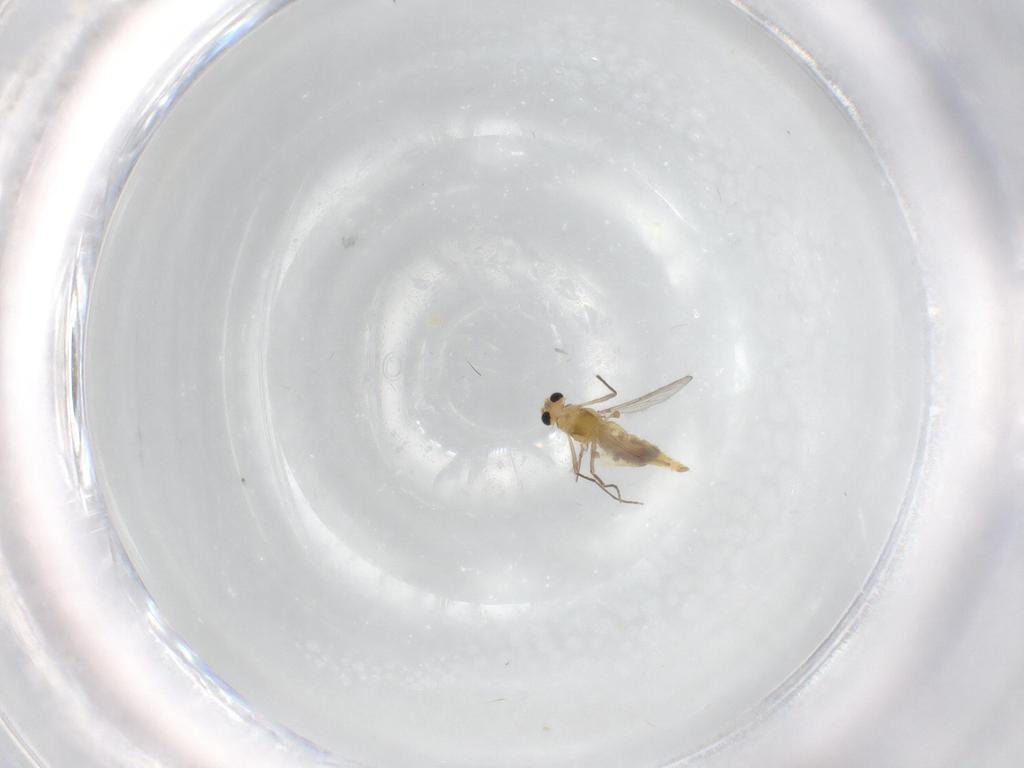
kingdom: Animalia
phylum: Arthropoda
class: Insecta
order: Diptera
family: Chironomidae
